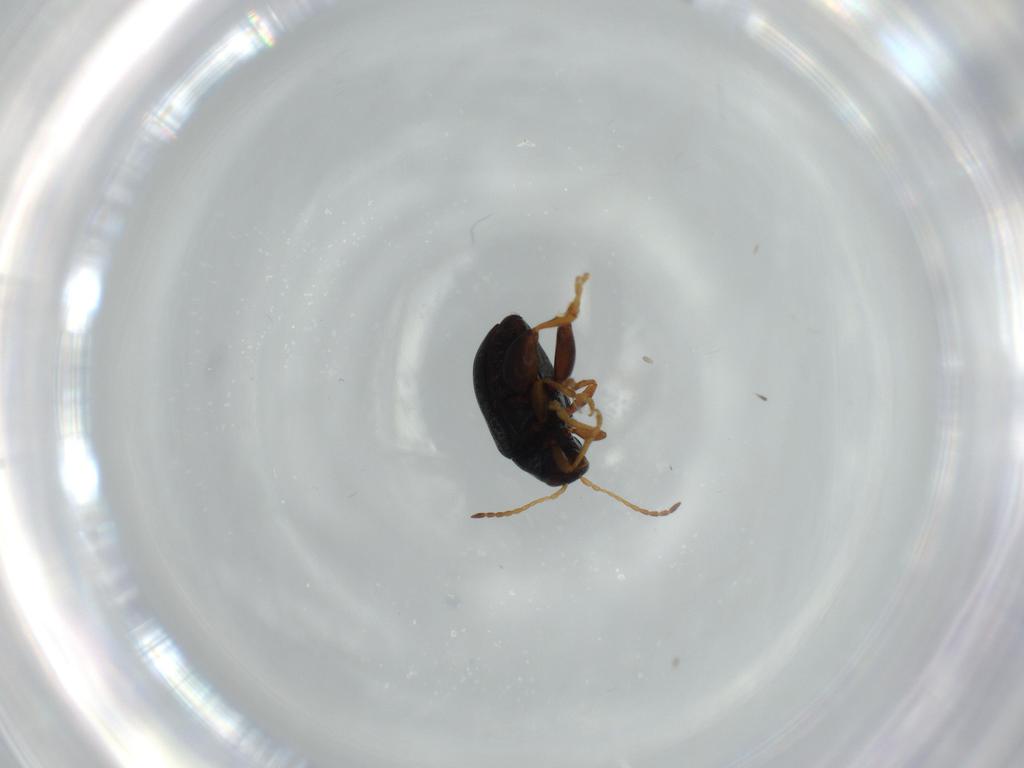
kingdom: Animalia
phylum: Arthropoda
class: Insecta
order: Coleoptera
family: Chrysomelidae
